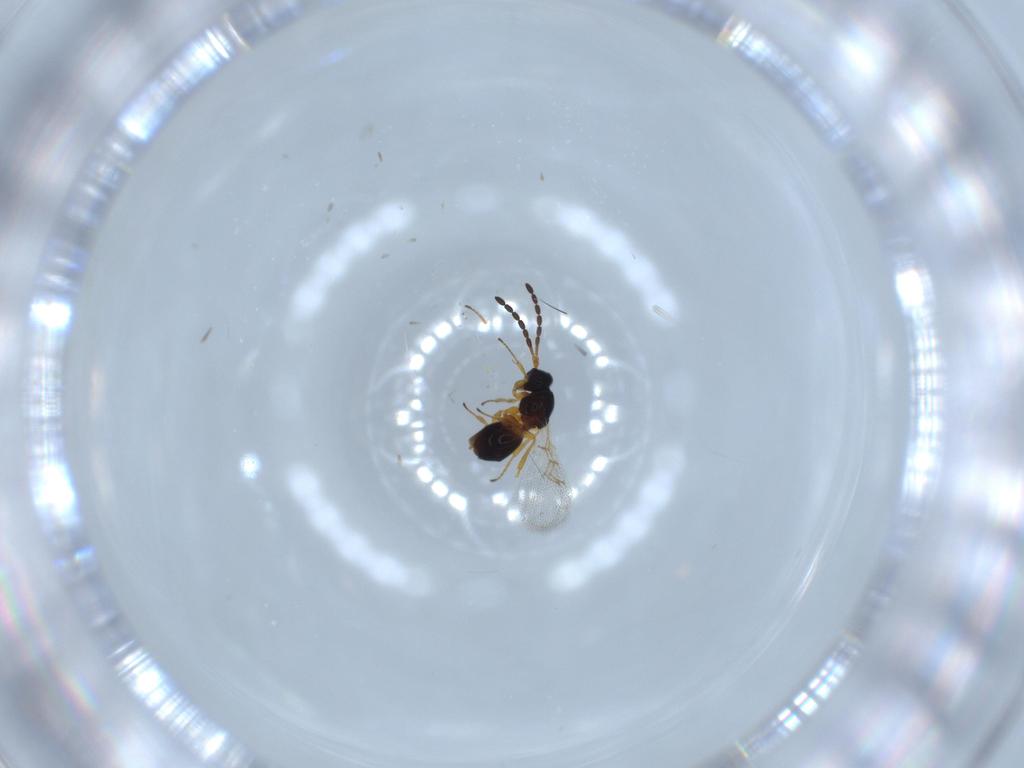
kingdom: Animalia
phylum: Arthropoda
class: Insecta
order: Hymenoptera
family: Figitidae
